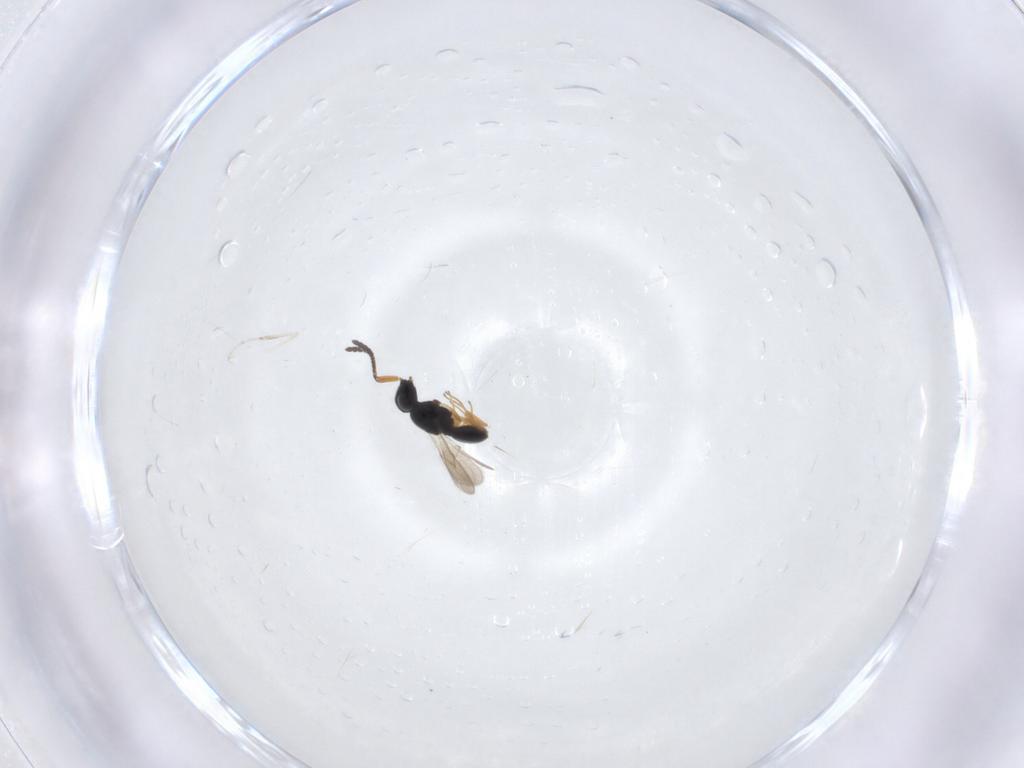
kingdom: Animalia
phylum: Arthropoda
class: Insecta
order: Hymenoptera
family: Scelionidae
